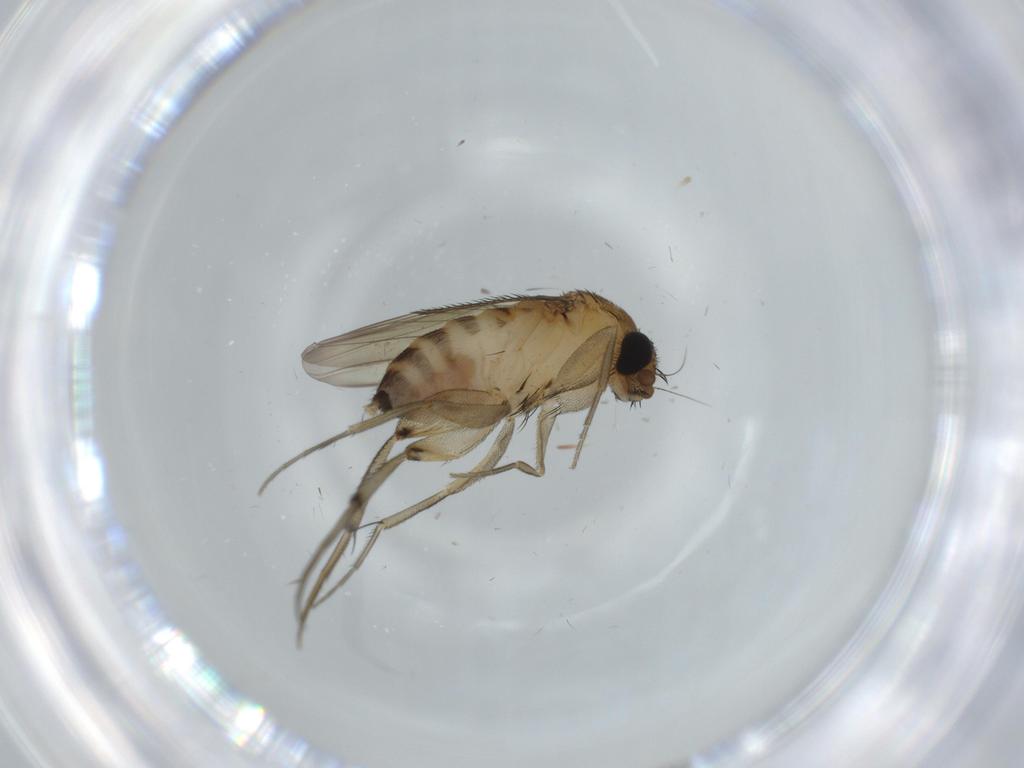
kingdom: Animalia
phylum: Arthropoda
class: Insecta
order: Diptera
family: Phoridae
